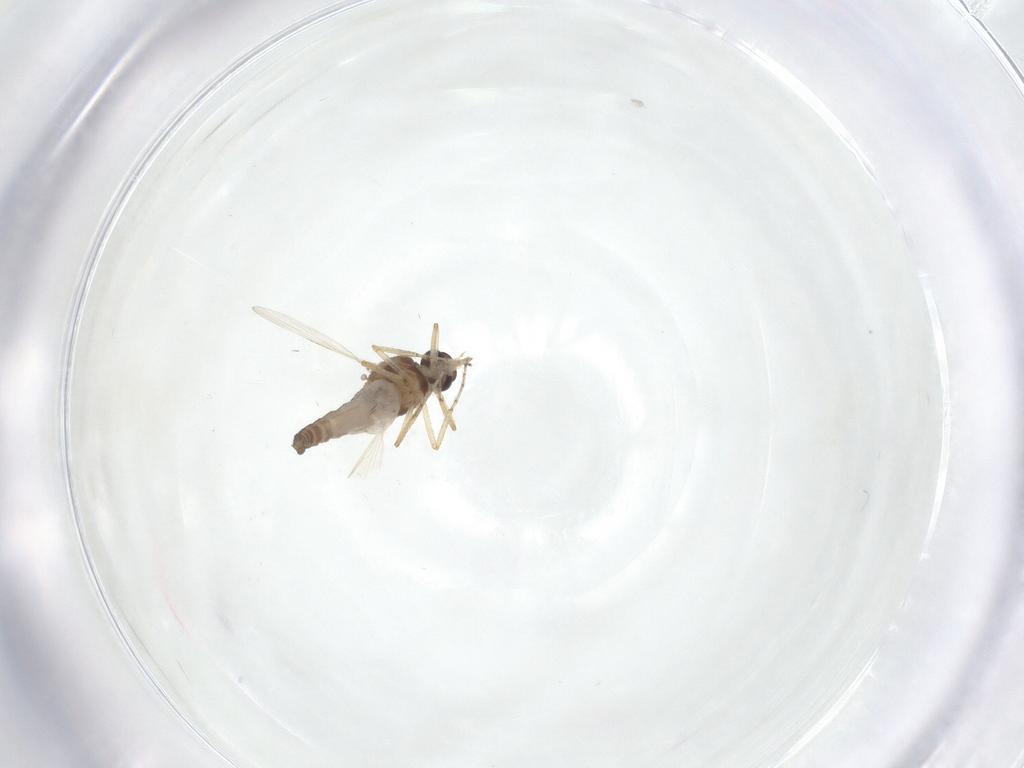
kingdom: Animalia
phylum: Arthropoda
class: Insecta
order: Diptera
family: Ceratopogonidae
